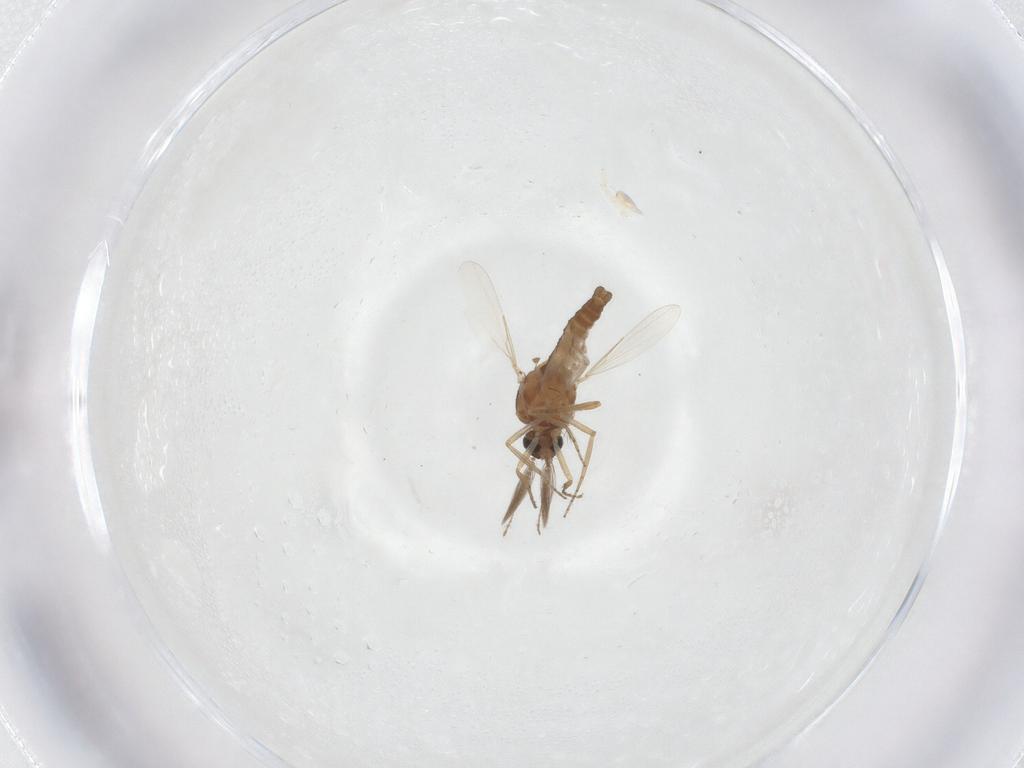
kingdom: Animalia
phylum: Arthropoda
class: Insecta
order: Diptera
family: Ceratopogonidae
